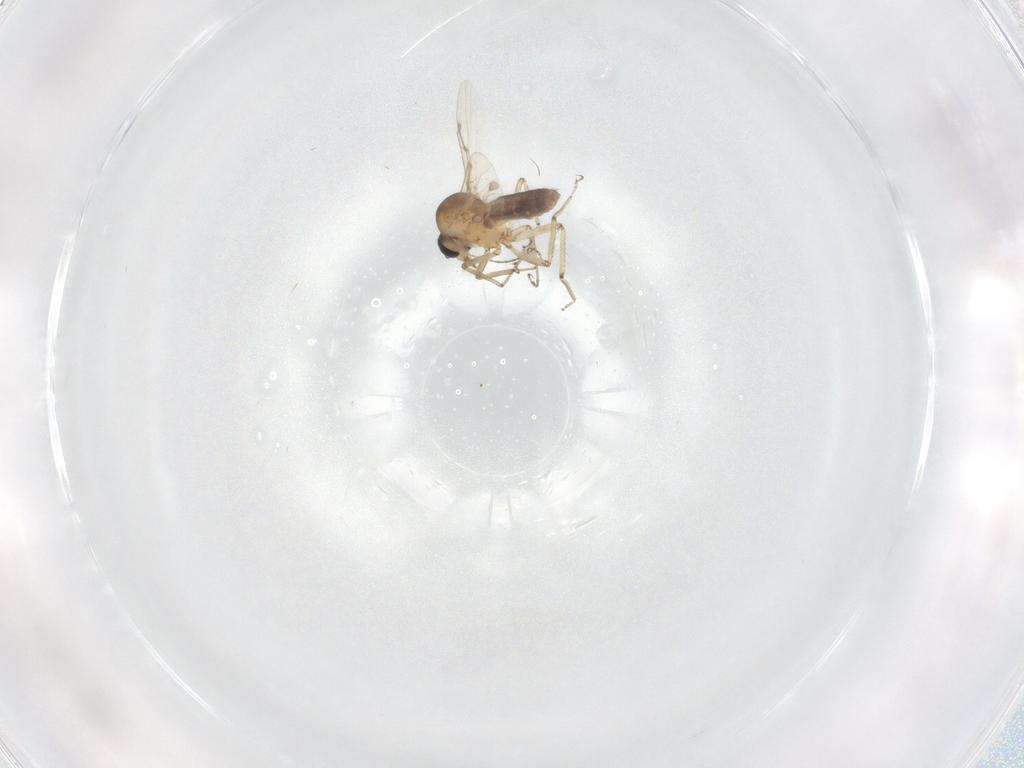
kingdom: Animalia
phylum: Arthropoda
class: Insecta
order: Diptera
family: Ceratopogonidae
